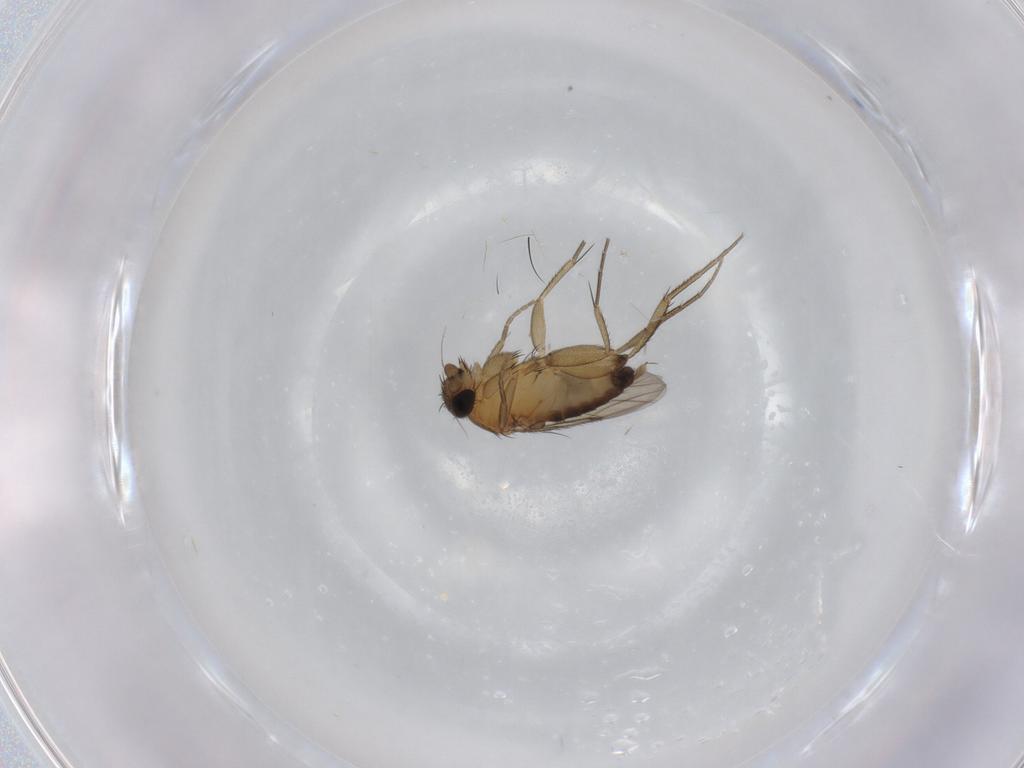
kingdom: Animalia
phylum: Arthropoda
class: Insecta
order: Diptera
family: Phoridae
